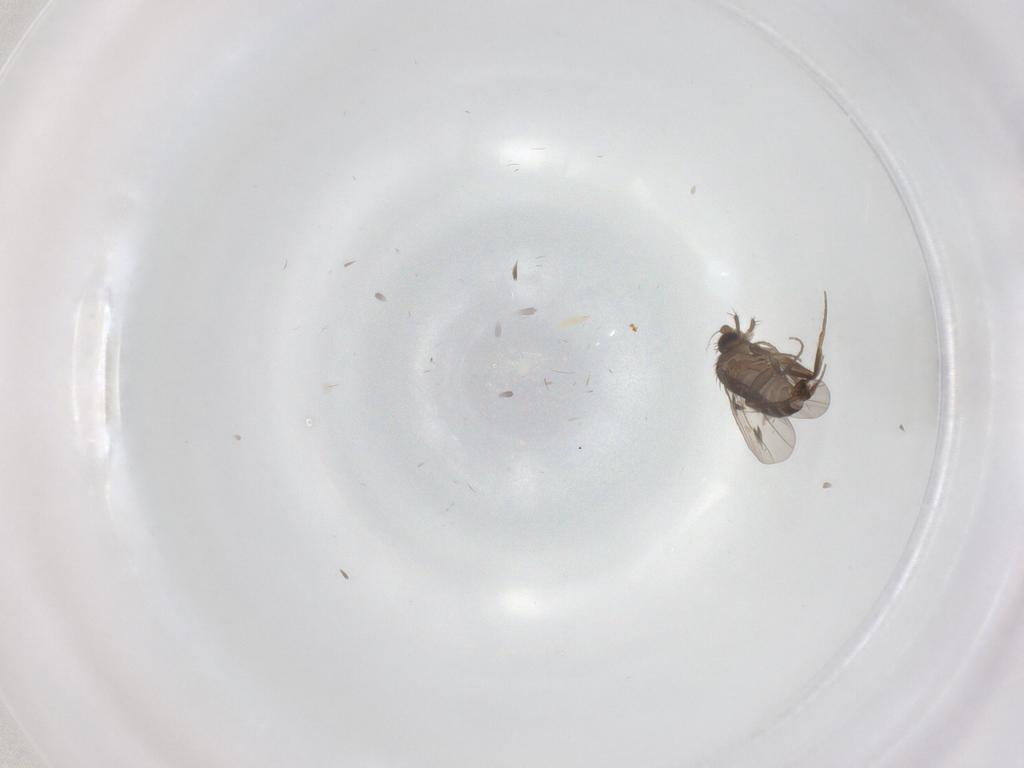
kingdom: Animalia
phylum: Arthropoda
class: Insecta
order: Diptera
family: Chironomidae
